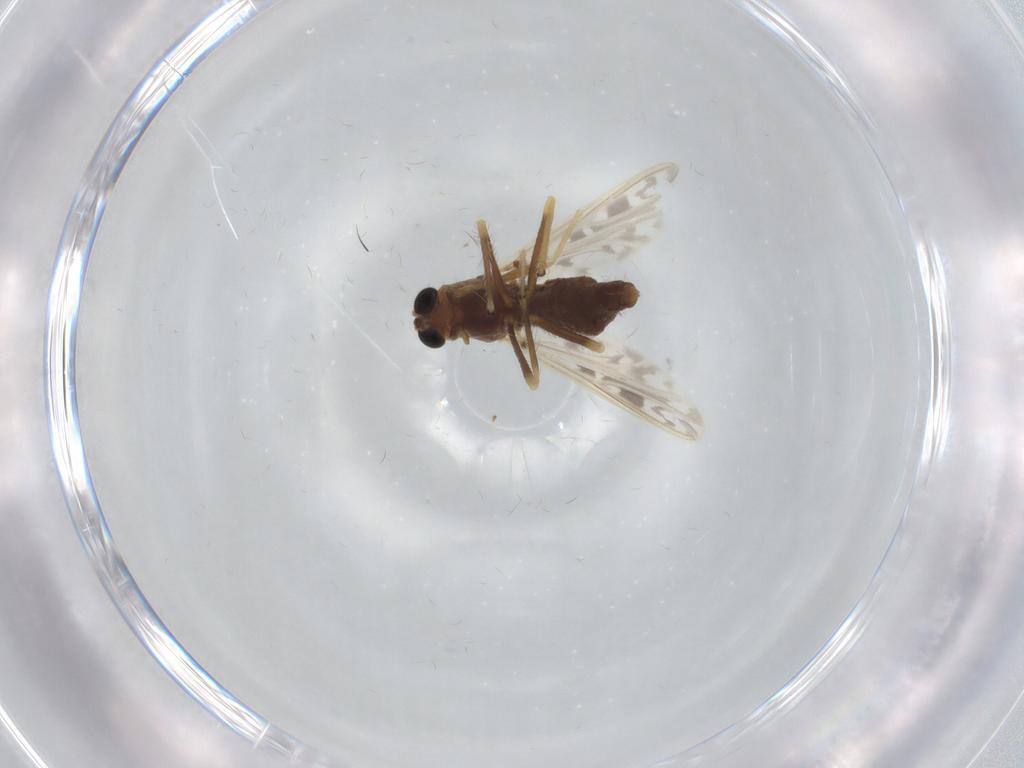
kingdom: Animalia
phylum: Arthropoda
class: Insecta
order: Diptera
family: Chironomidae
